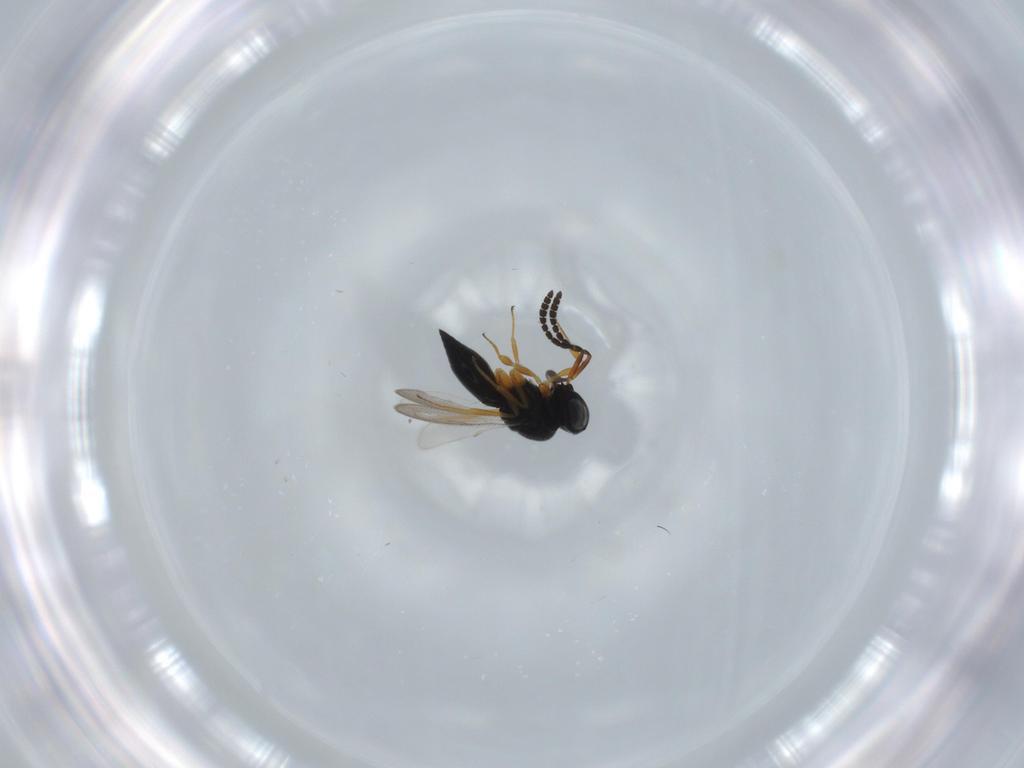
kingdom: Animalia
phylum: Arthropoda
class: Insecta
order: Hymenoptera
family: Scelionidae
